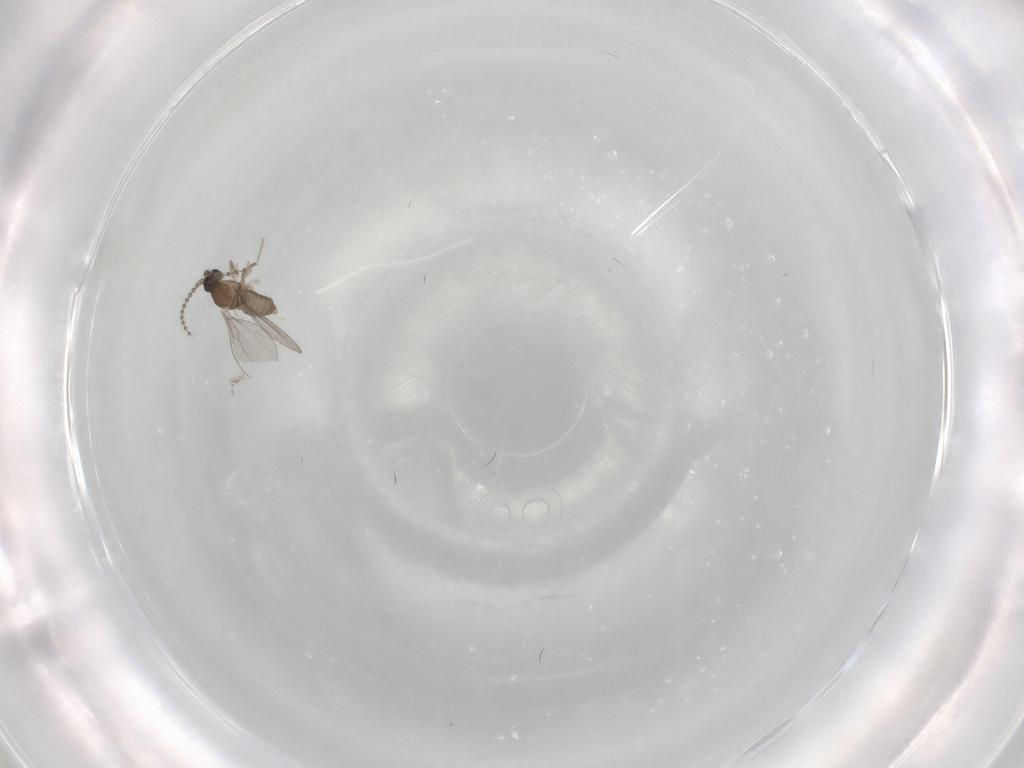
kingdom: Animalia
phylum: Arthropoda
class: Insecta
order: Diptera
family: Cecidomyiidae
